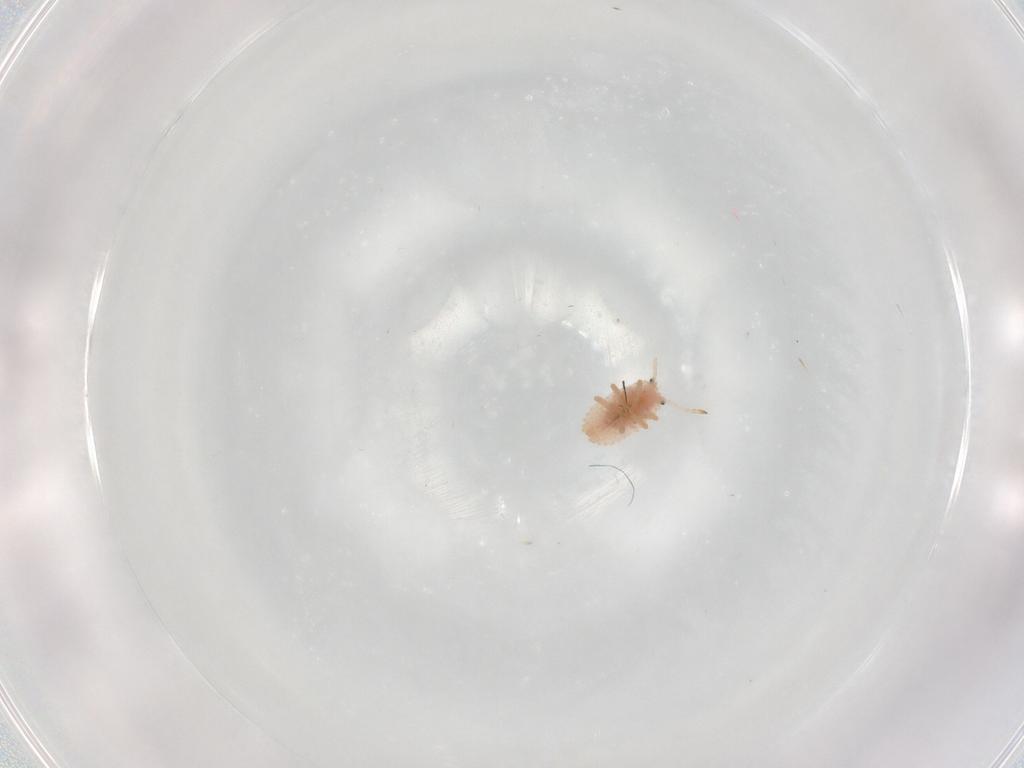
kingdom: Animalia
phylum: Arthropoda
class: Insecta
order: Hemiptera
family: Coccoidea_incertae_sedis
